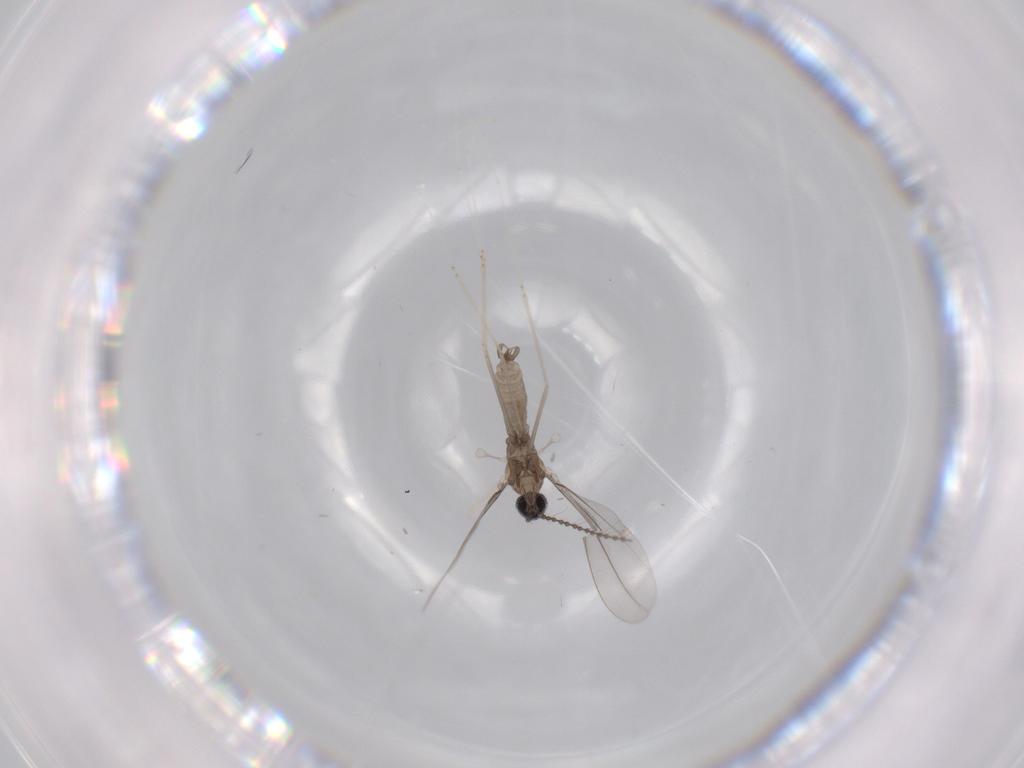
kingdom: Animalia
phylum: Arthropoda
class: Insecta
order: Diptera
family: Cecidomyiidae
